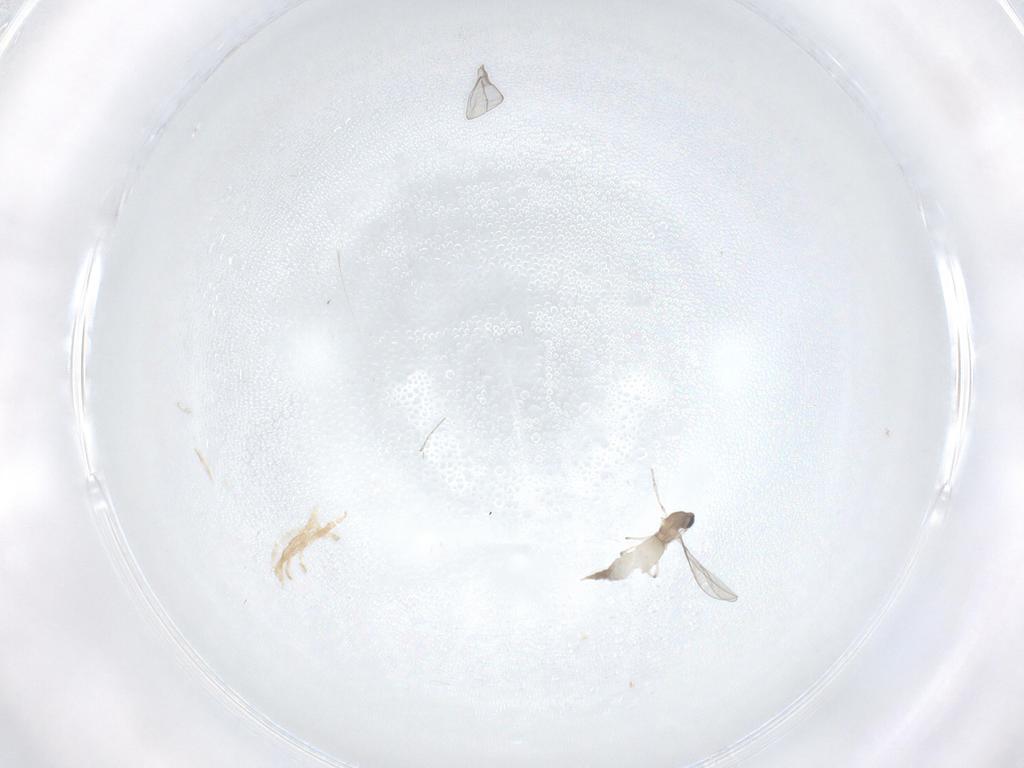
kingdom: Animalia
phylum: Arthropoda
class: Insecta
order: Diptera
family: Cecidomyiidae
